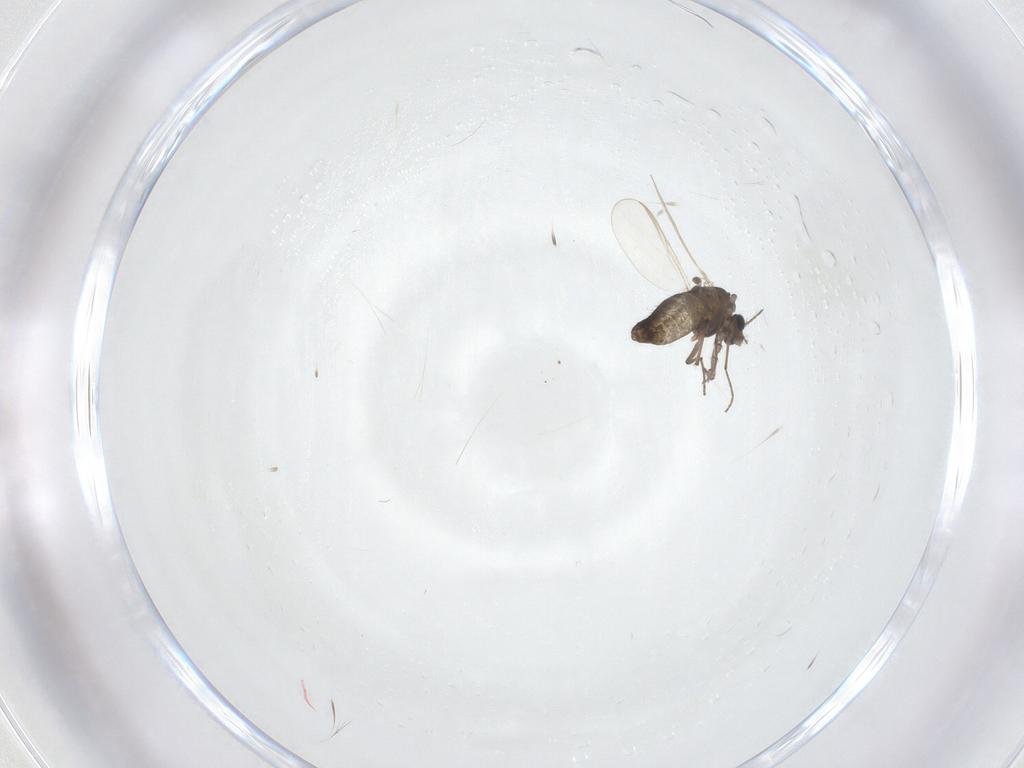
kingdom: Animalia
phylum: Arthropoda
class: Insecta
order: Diptera
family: Chironomidae
